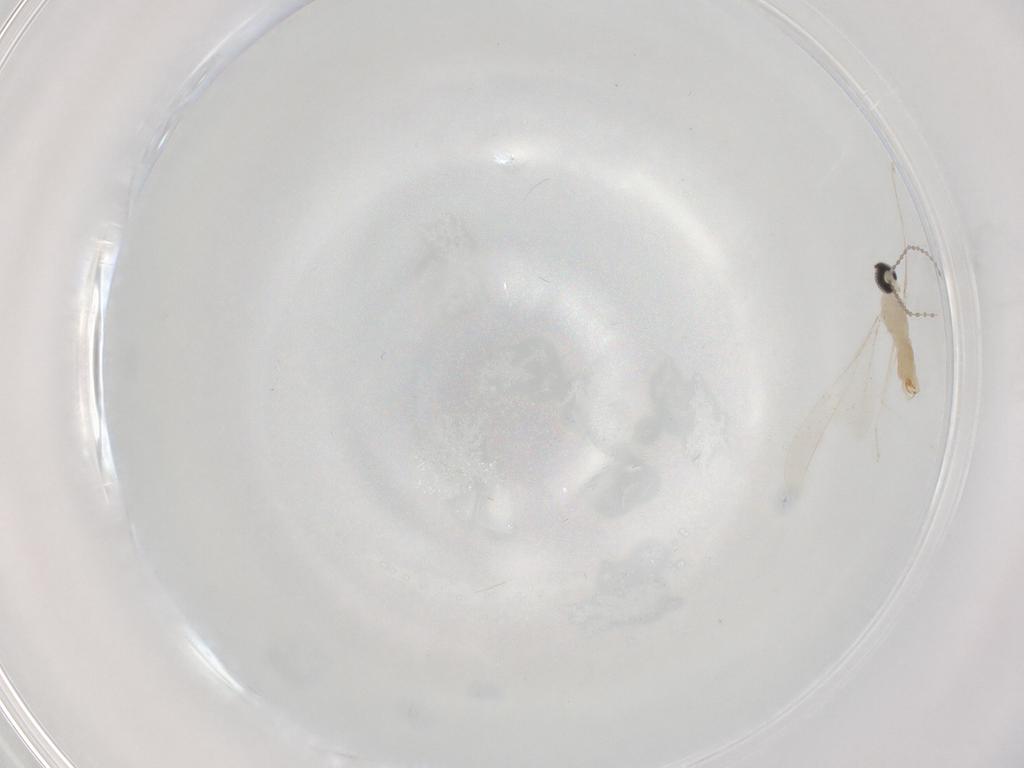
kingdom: Animalia
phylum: Arthropoda
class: Insecta
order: Diptera
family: Cecidomyiidae
